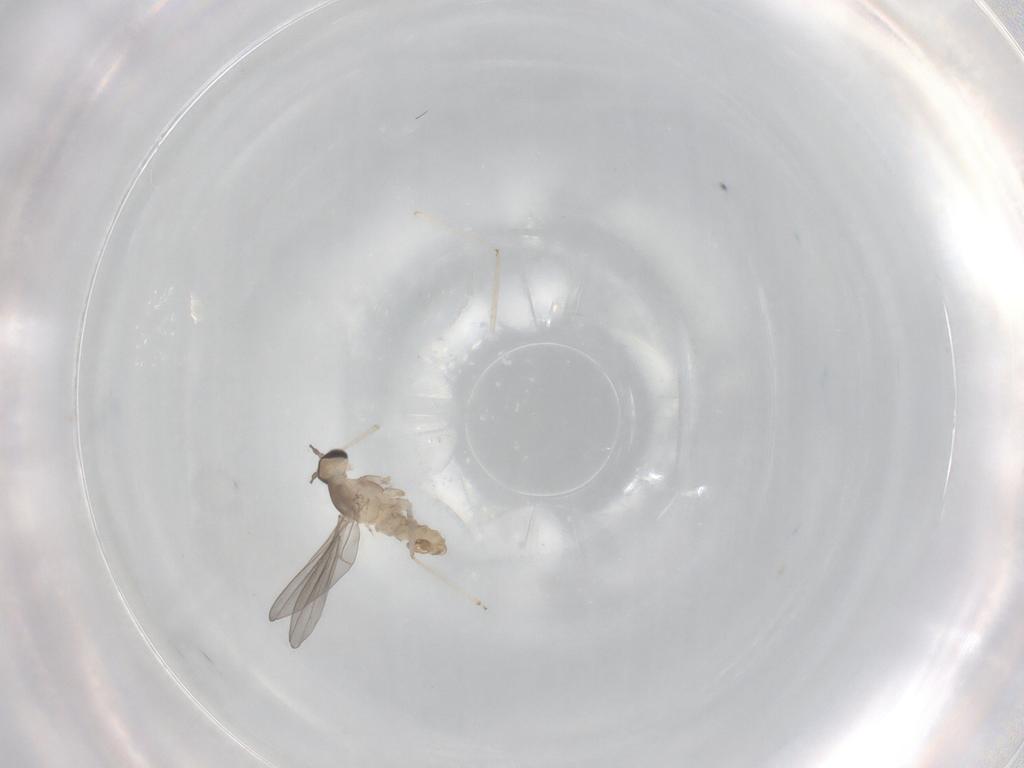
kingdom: Animalia
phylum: Arthropoda
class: Insecta
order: Diptera
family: Cecidomyiidae
